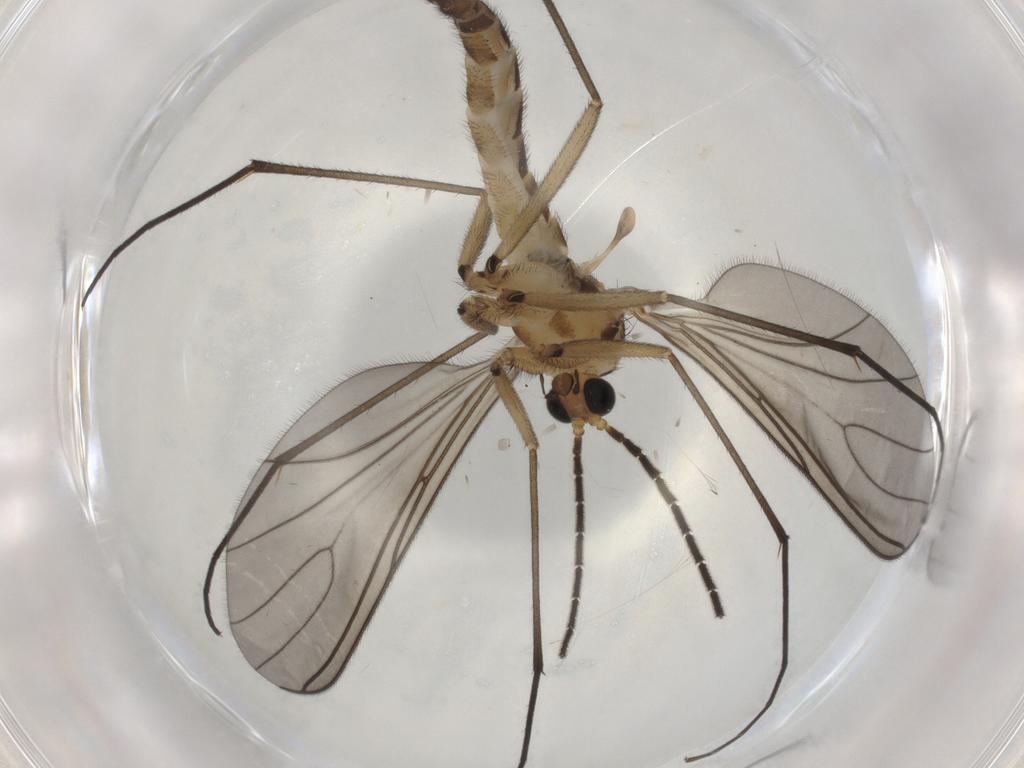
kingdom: Animalia
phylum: Arthropoda
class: Insecta
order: Diptera
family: Sciaridae
